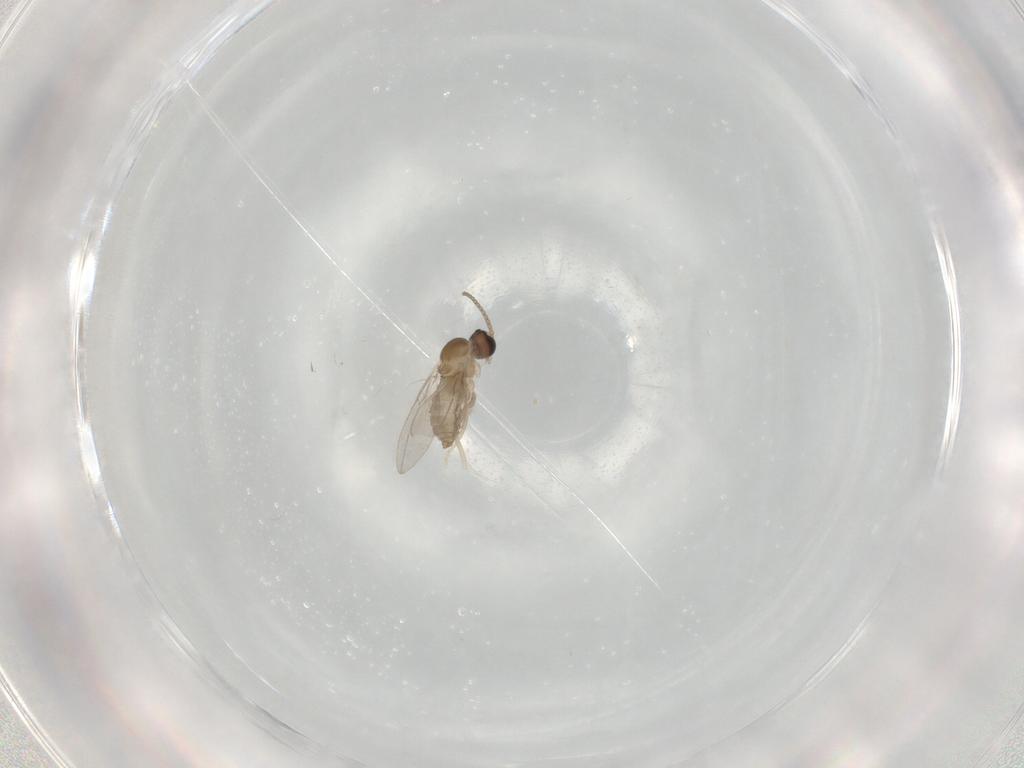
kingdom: Animalia
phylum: Arthropoda
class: Insecta
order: Diptera
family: Cecidomyiidae
